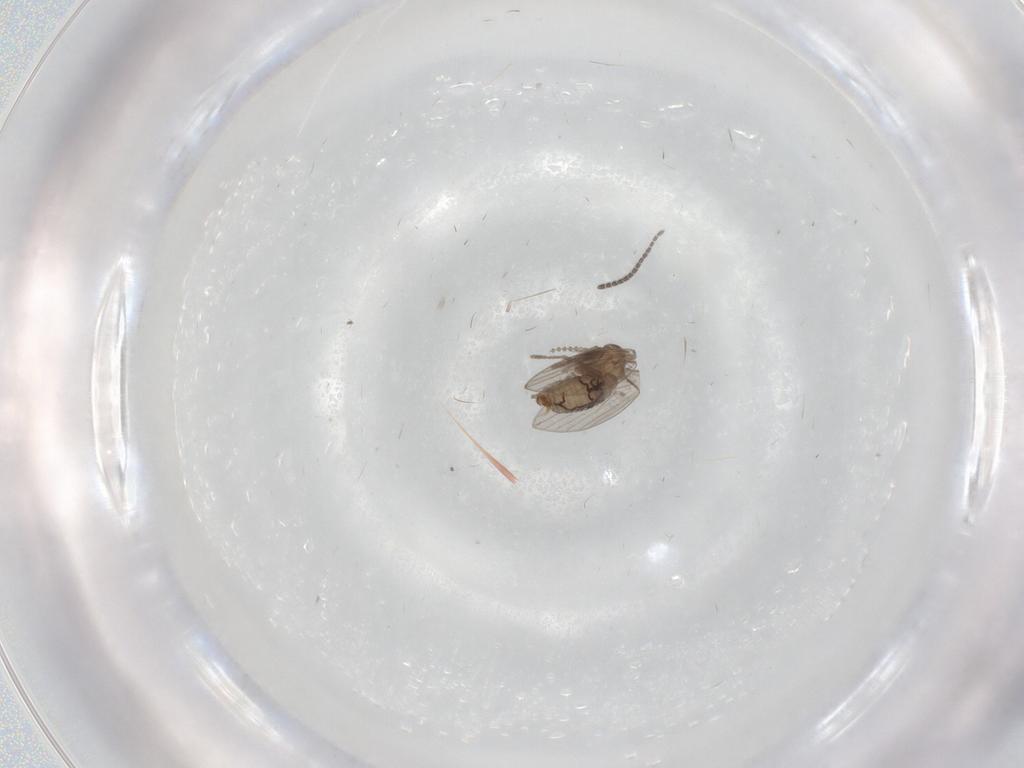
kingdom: Animalia
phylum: Arthropoda
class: Insecta
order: Diptera
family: Psychodidae
